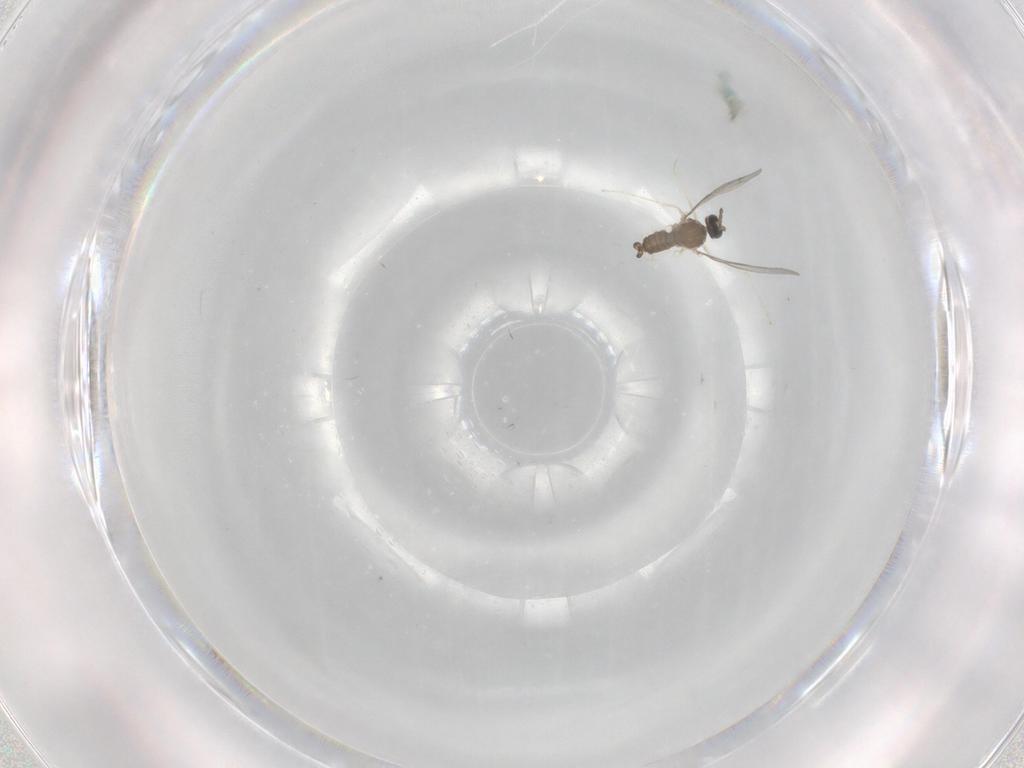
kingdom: Animalia
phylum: Arthropoda
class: Insecta
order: Diptera
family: Cecidomyiidae
